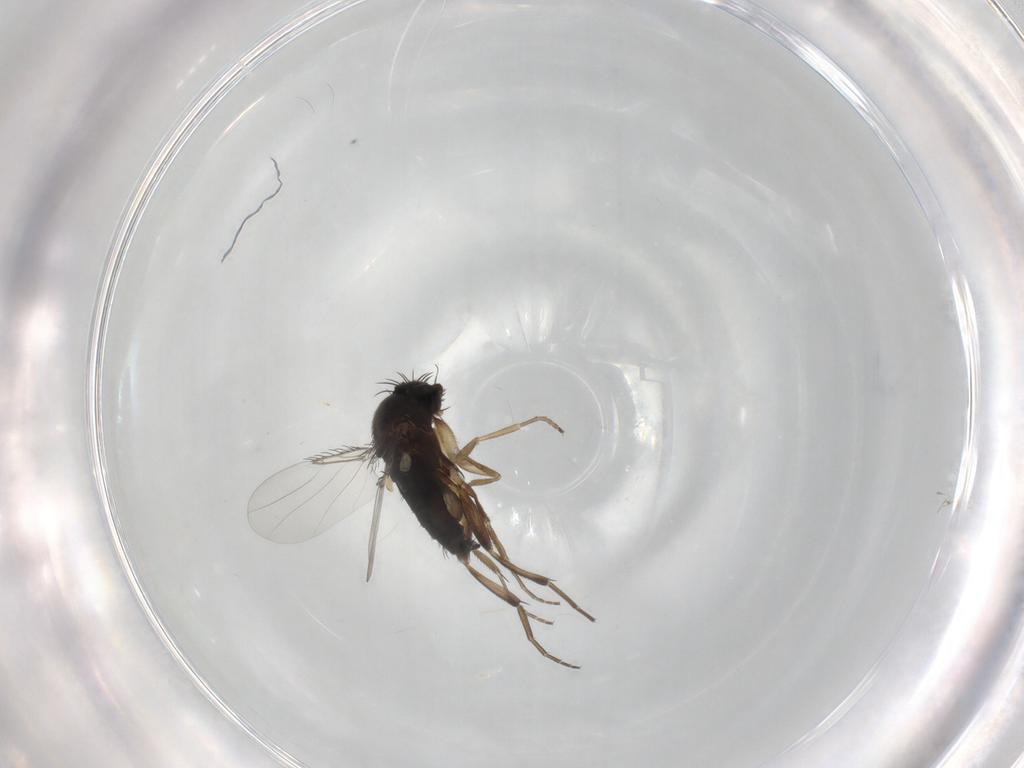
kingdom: Animalia
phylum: Arthropoda
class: Insecta
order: Diptera
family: Phoridae
